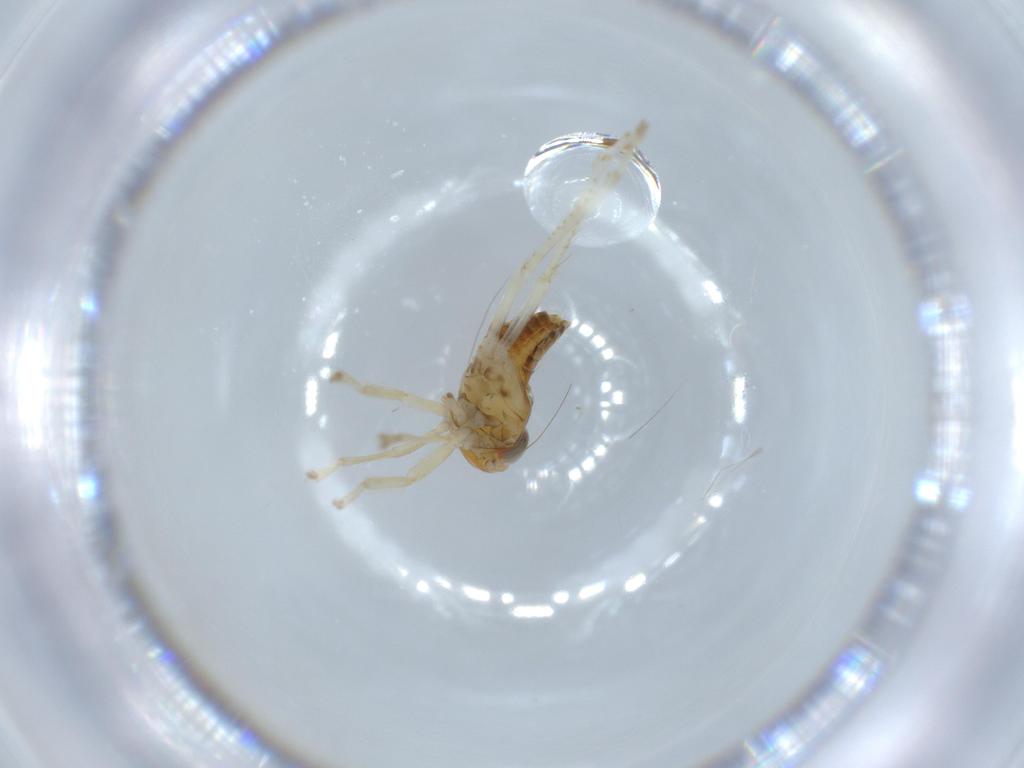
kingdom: Animalia
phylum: Arthropoda
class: Insecta
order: Hemiptera
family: Cicadellidae
